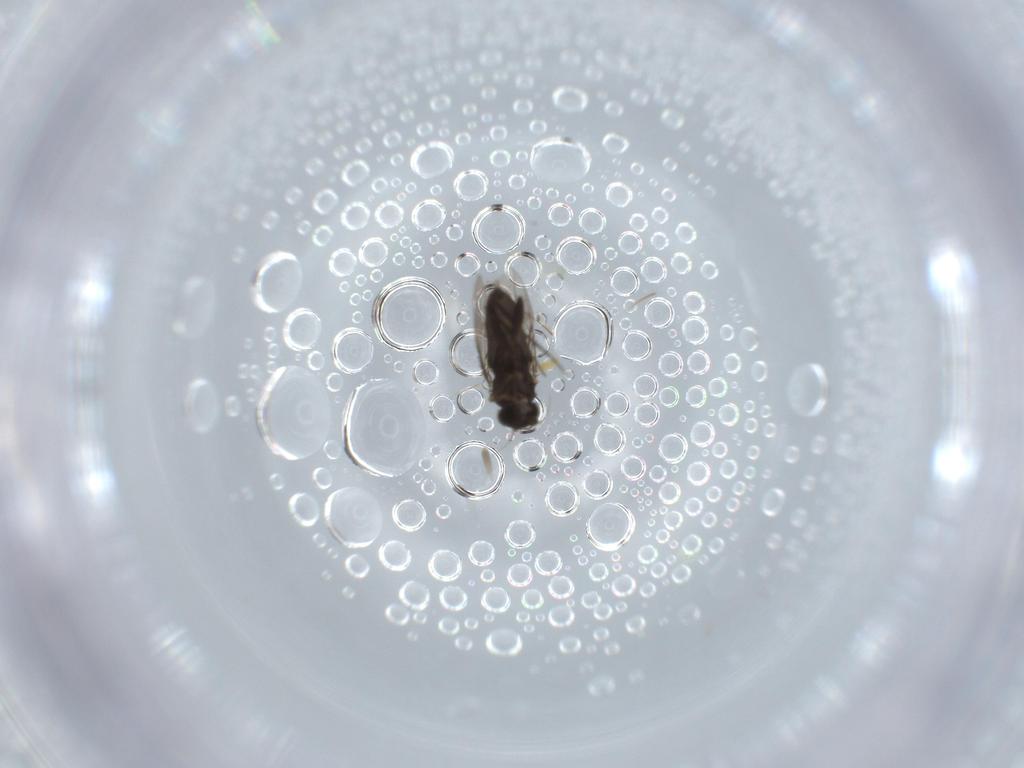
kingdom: Animalia
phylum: Arthropoda
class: Insecta
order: Diptera
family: Phoridae
